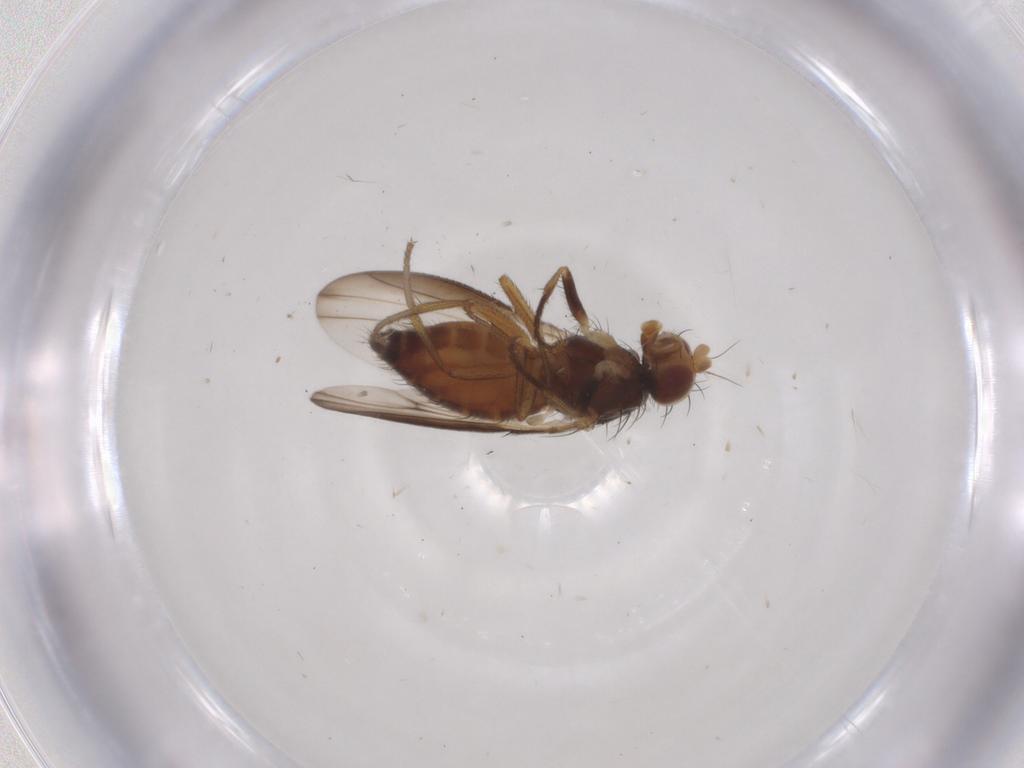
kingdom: Animalia
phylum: Arthropoda
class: Insecta
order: Diptera
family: Heleomyzidae
